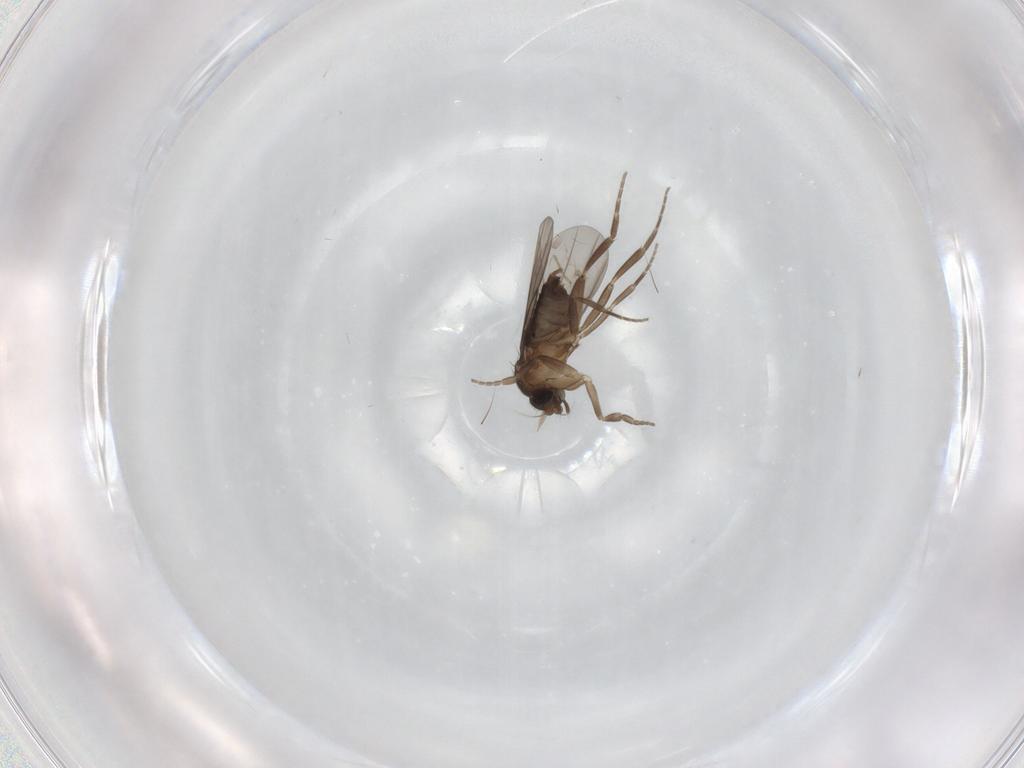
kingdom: Animalia
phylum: Arthropoda
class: Insecta
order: Diptera
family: Chironomidae
